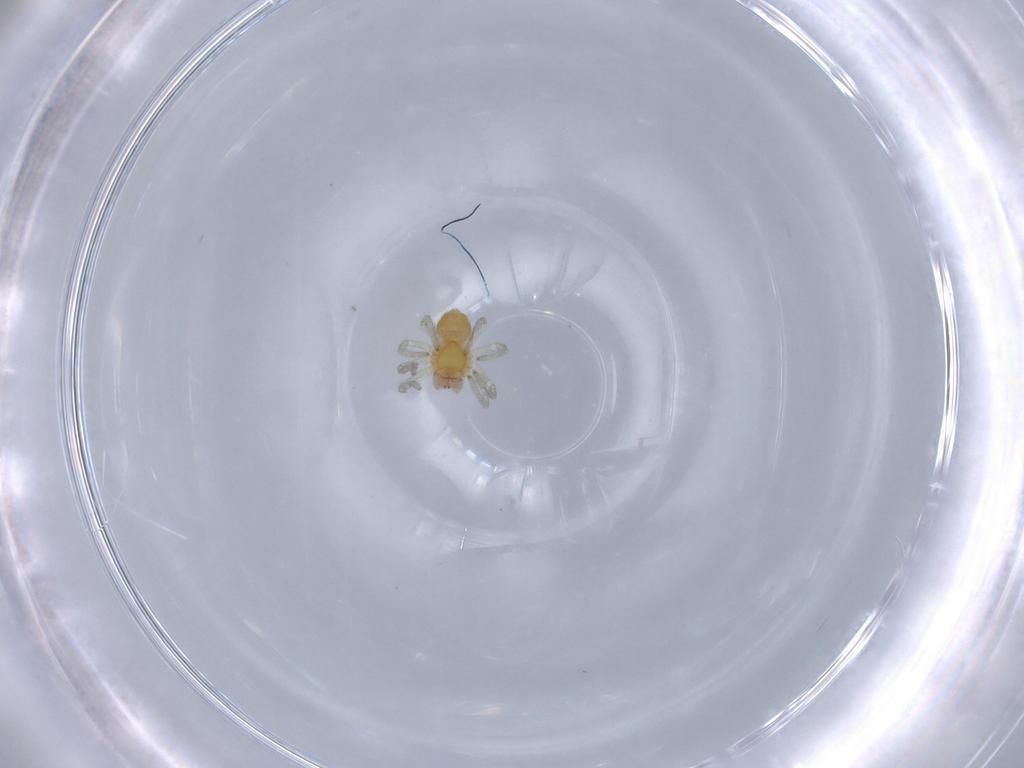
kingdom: Animalia
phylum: Arthropoda
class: Arachnida
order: Araneae
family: Dictynidae
